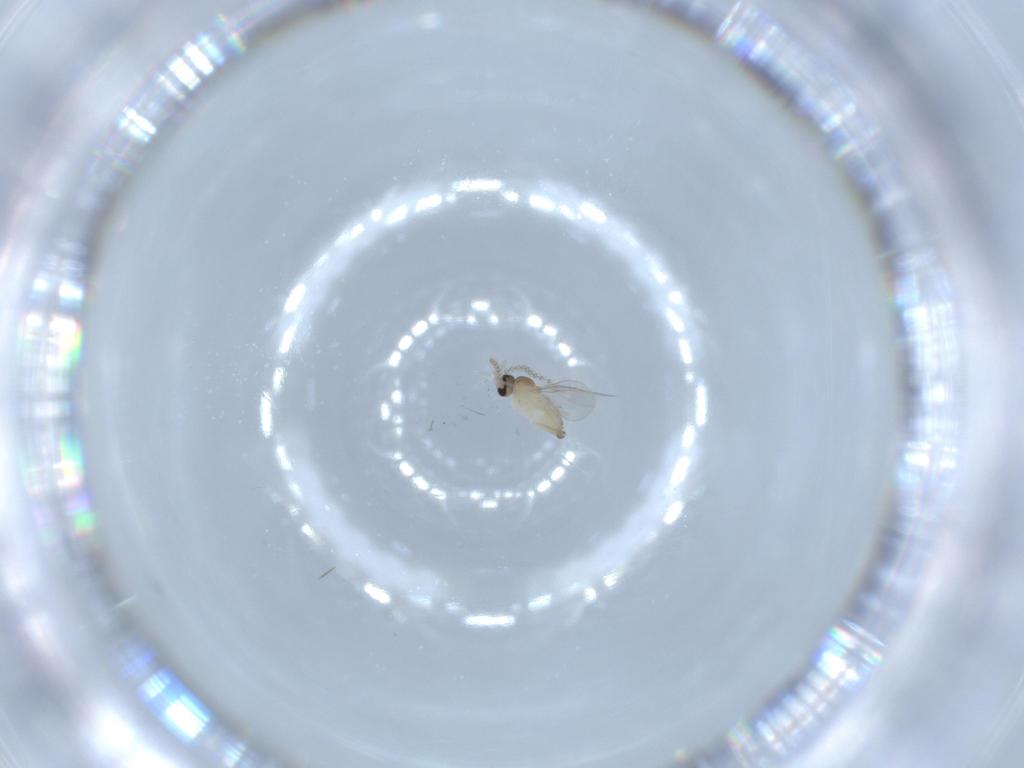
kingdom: Animalia
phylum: Arthropoda
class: Insecta
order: Diptera
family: Cecidomyiidae
